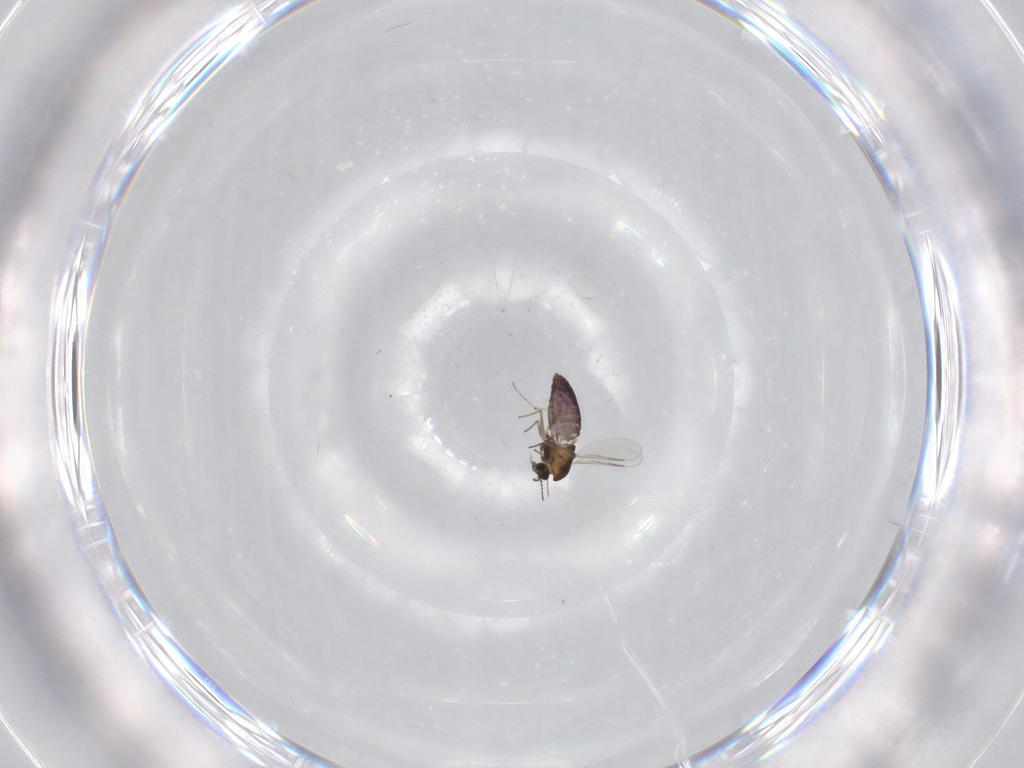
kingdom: Animalia
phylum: Arthropoda
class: Insecta
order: Diptera
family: Chironomidae
